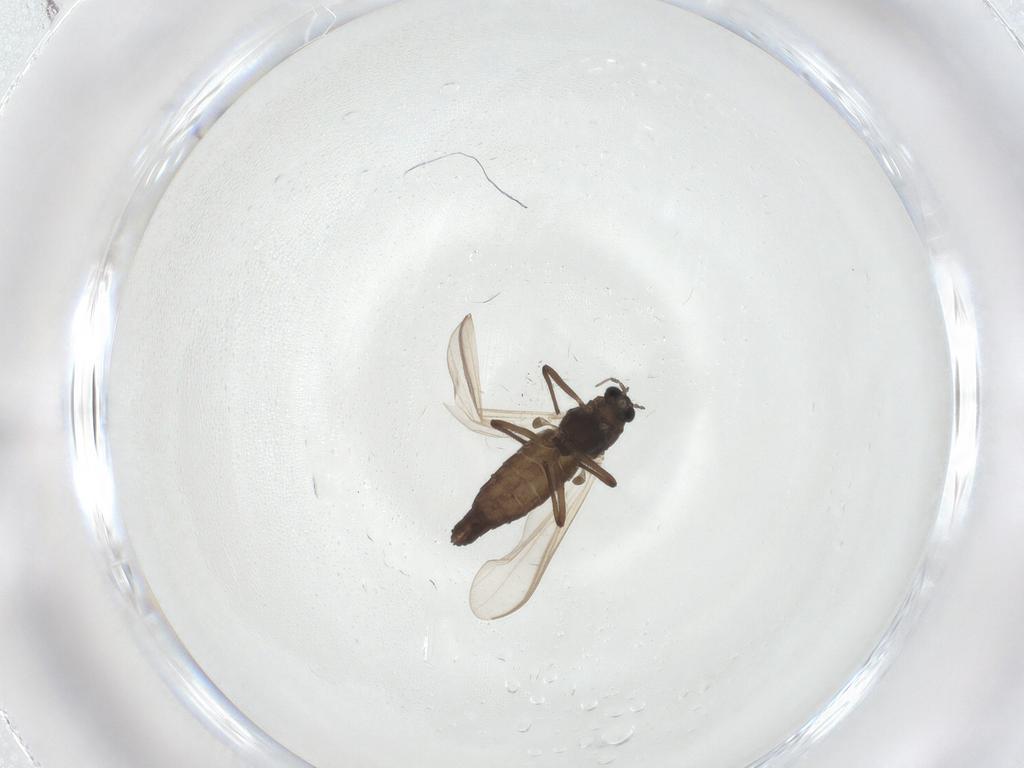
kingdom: Animalia
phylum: Arthropoda
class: Insecta
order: Diptera
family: Chironomidae
